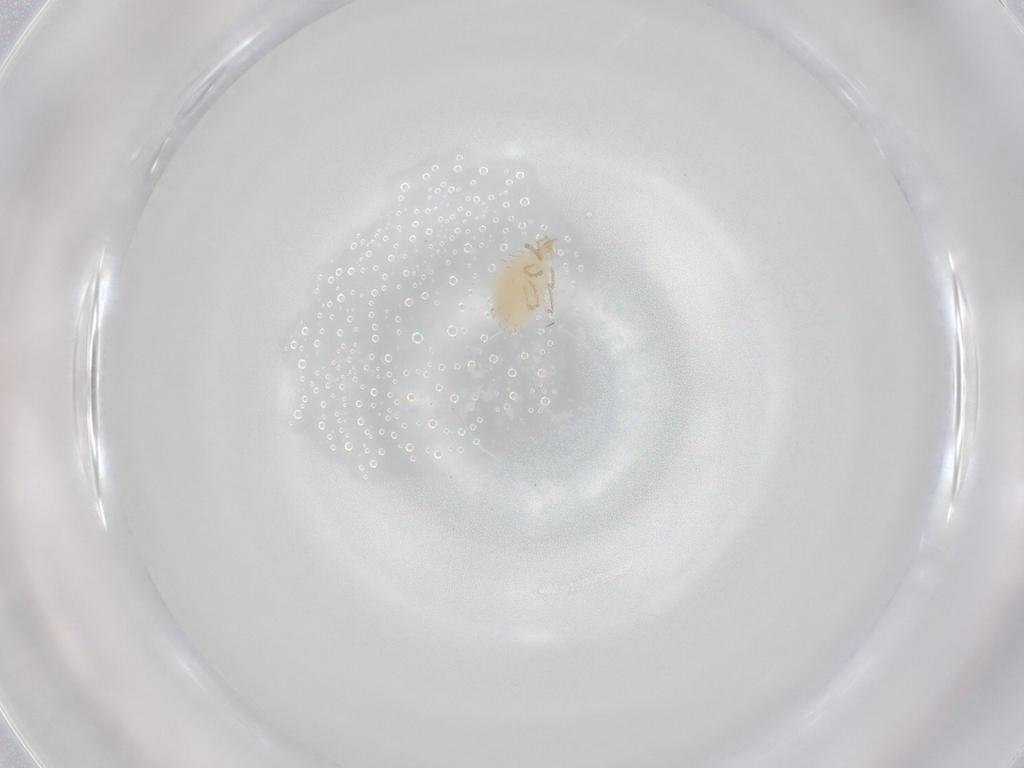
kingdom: Animalia
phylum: Arthropoda
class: Arachnida
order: Trombidiformes
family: Erythraeidae
